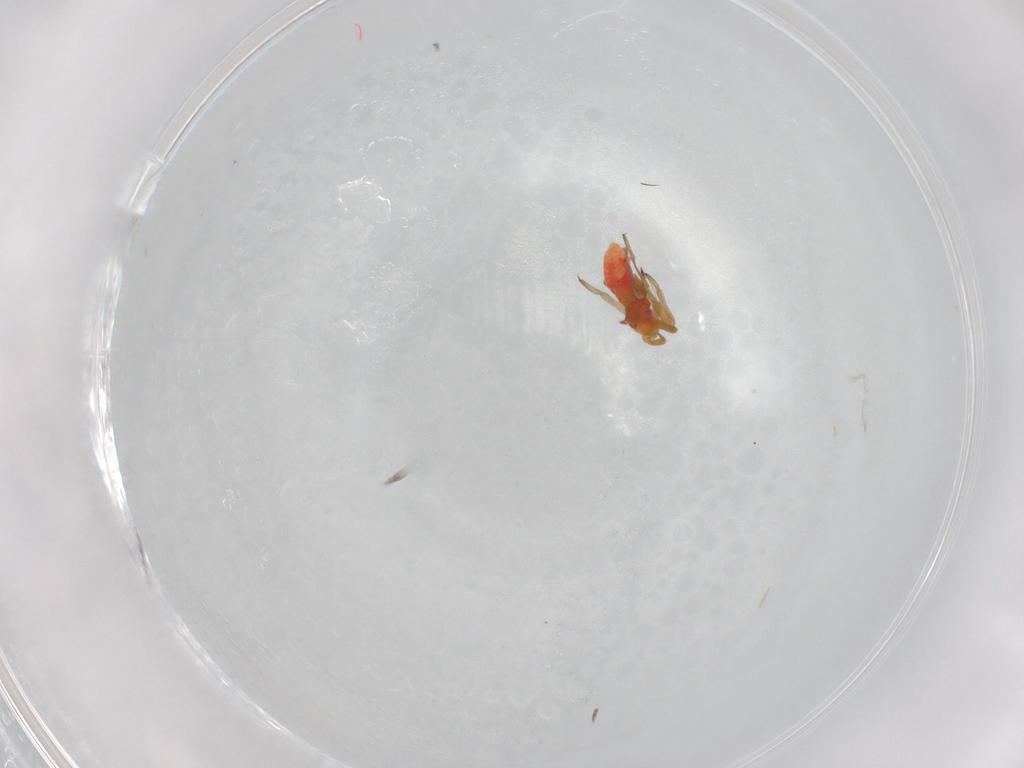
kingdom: Animalia
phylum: Arthropoda
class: Insecta
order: Hemiptera
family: Miridae
